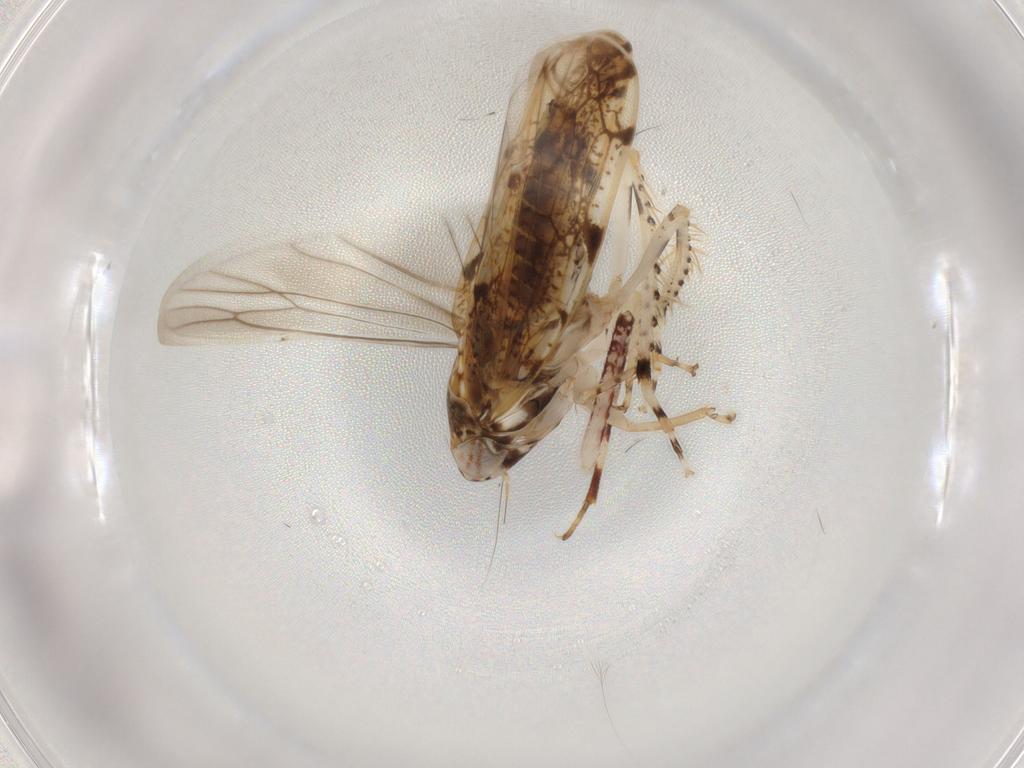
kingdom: Animalia
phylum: Arthropoda
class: Insecta
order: Hemiptera
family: Cicadellidae
